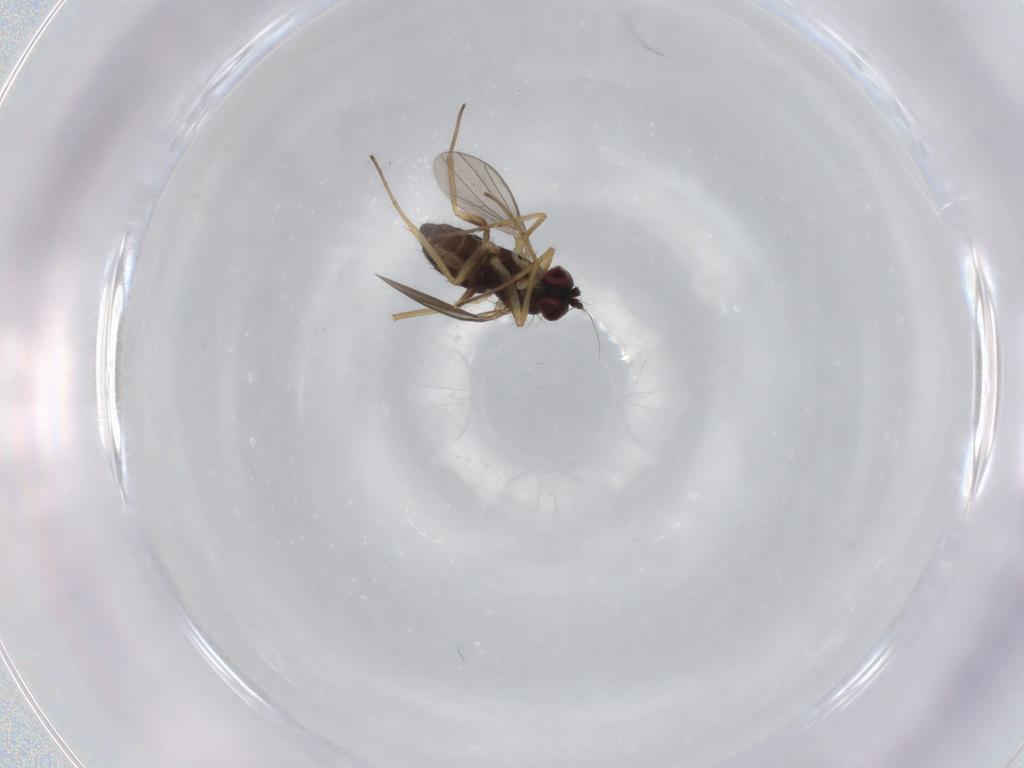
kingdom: Animalia
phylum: Arthropoda
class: Insecta
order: Diptera
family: Dolichopodidae
